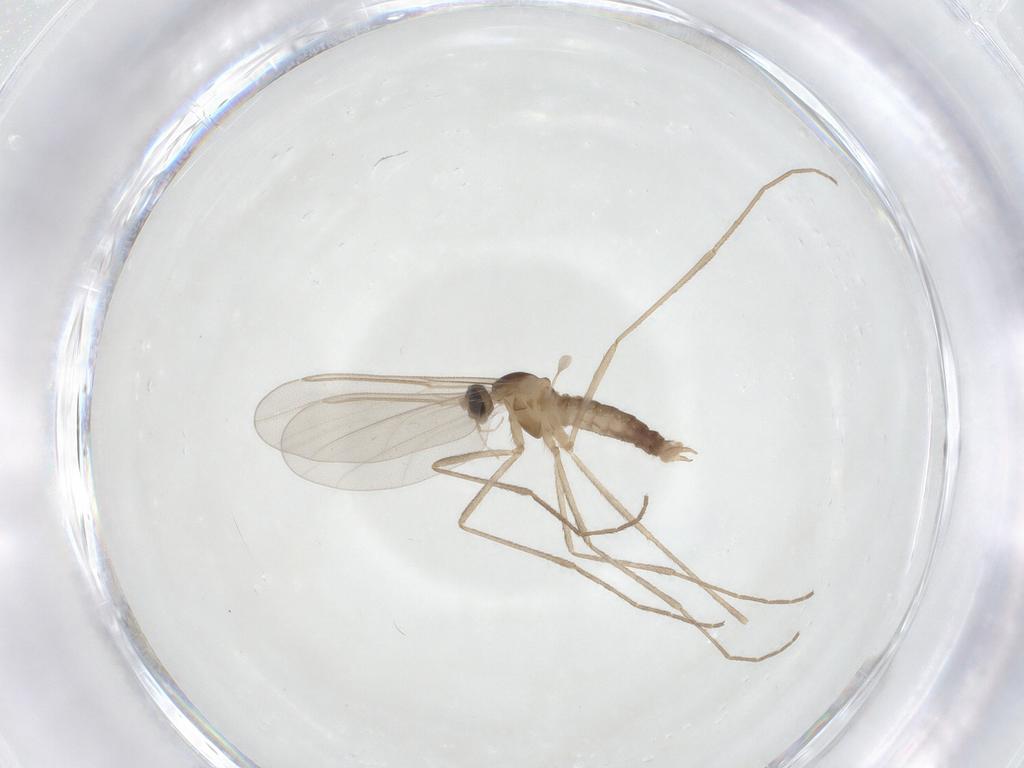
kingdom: Animalia
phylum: Arthropoda
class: Insecta
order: Diptera
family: Cecidomyiidae
